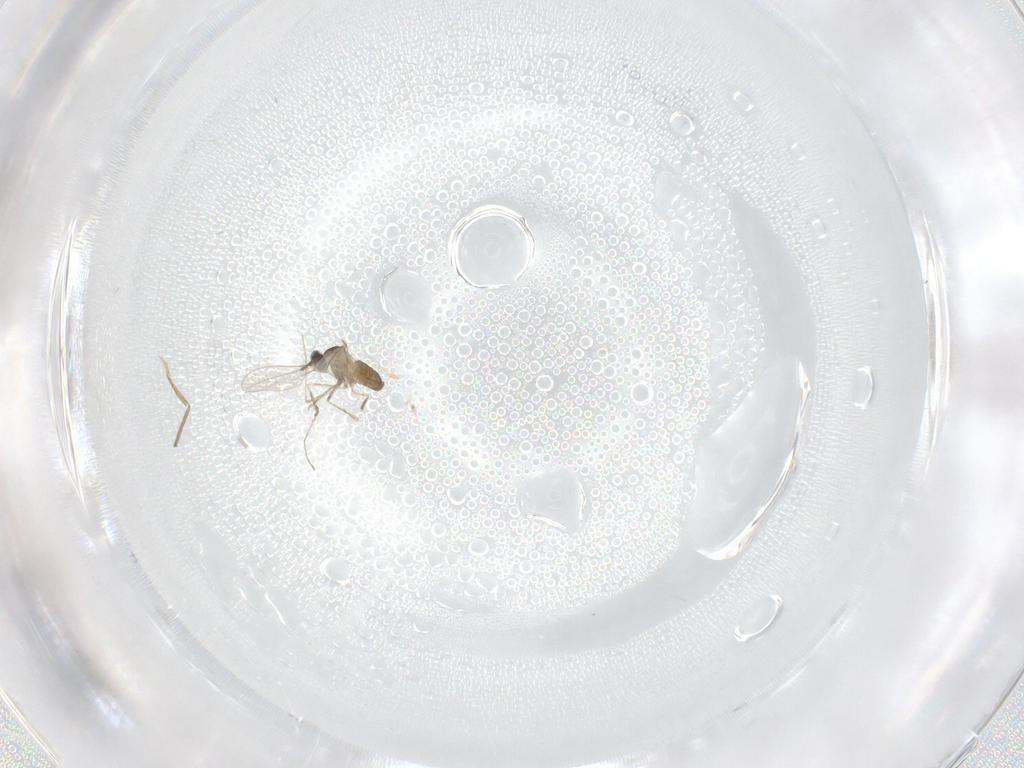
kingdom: Animalia
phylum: Arthropoda
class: Insecta
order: Diptera
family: Cecidomyiidae
